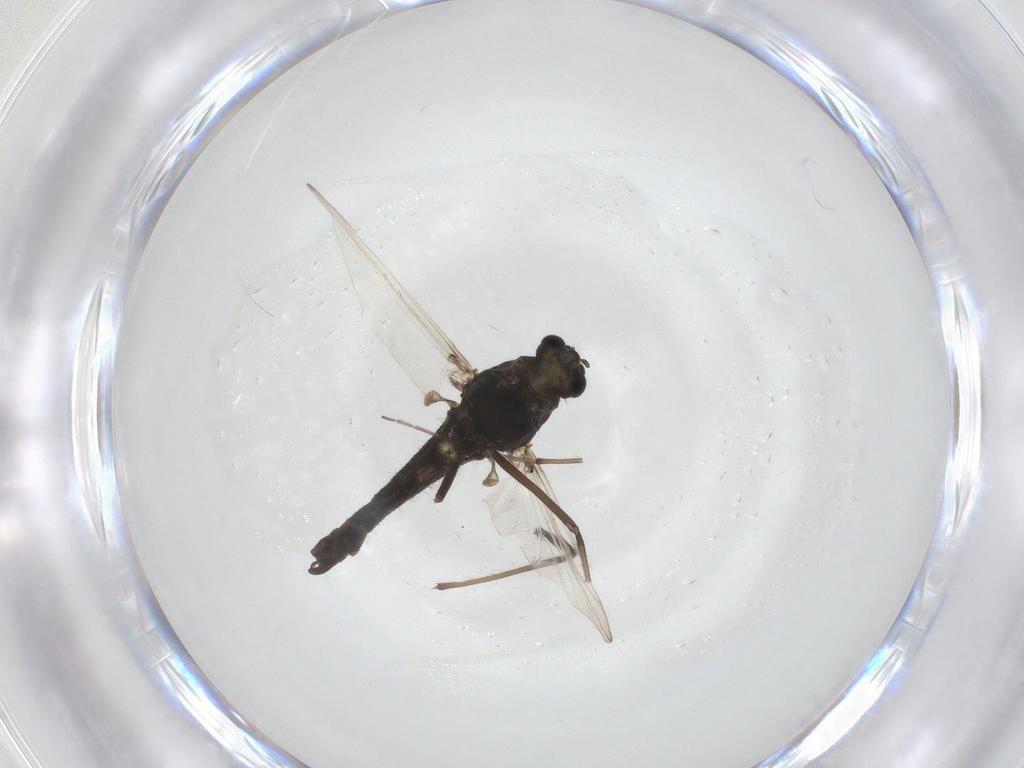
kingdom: Animalia
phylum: Arthropoda
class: Insecta
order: Diptera
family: Chironomidae
